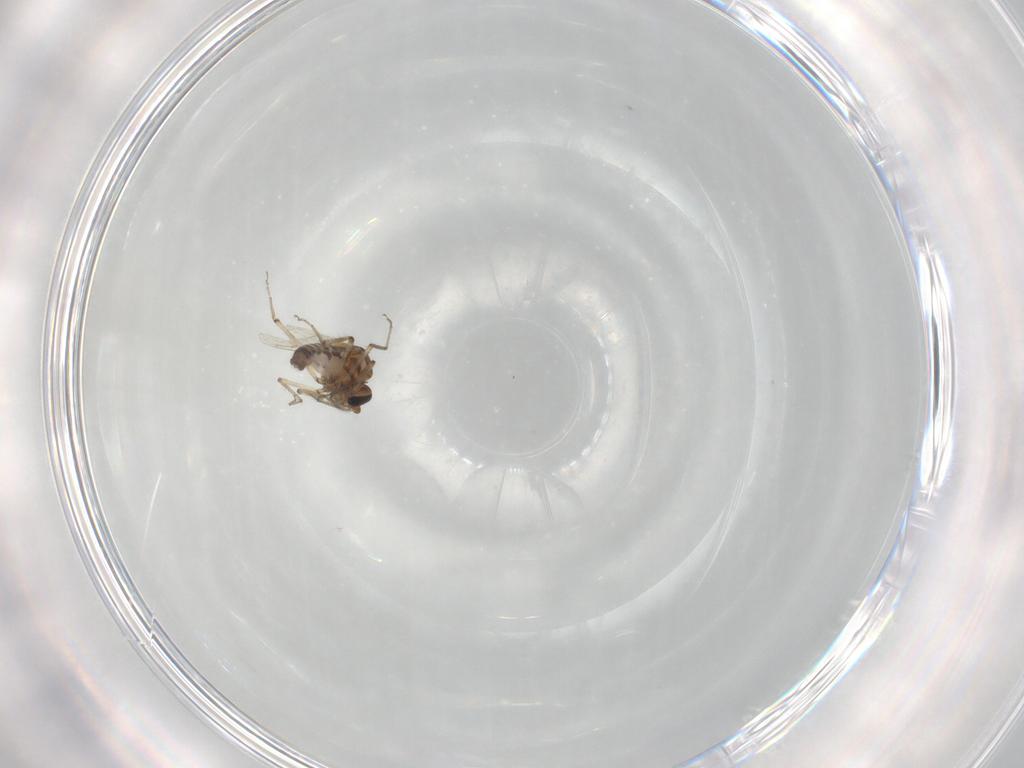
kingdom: Animalia
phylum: Arthropoda
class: Insecta
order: Diptera
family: Ceratopogonidae
